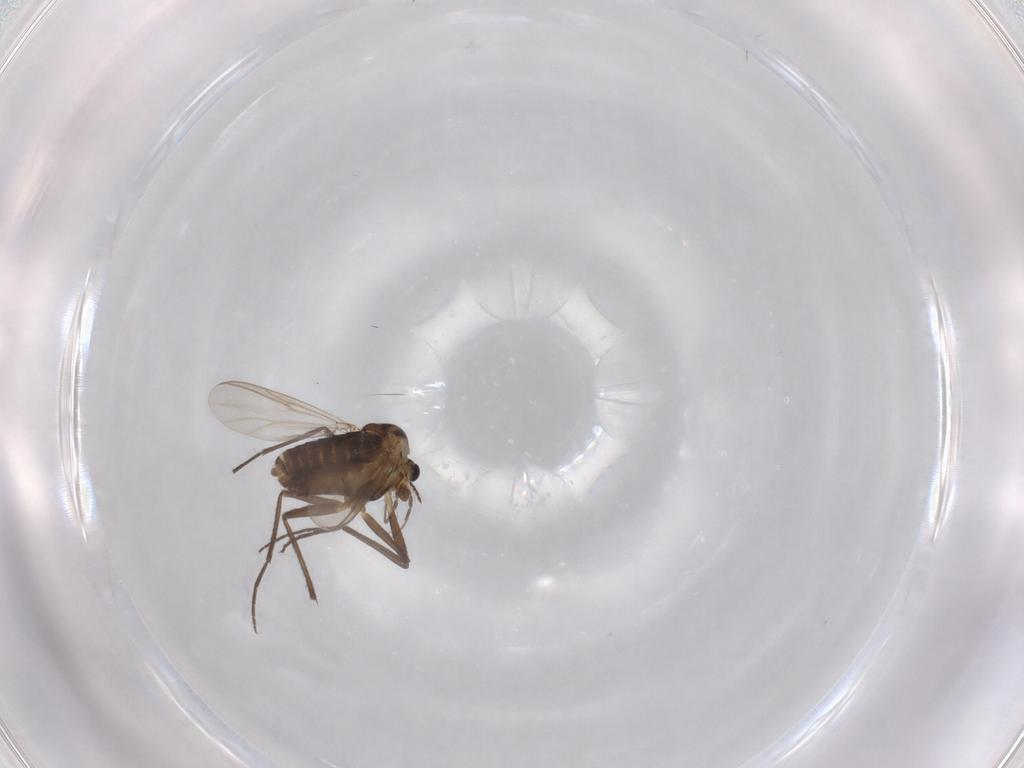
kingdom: Animalia
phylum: Arthropoda
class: Insecta
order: Diptera
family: Chironomidae
